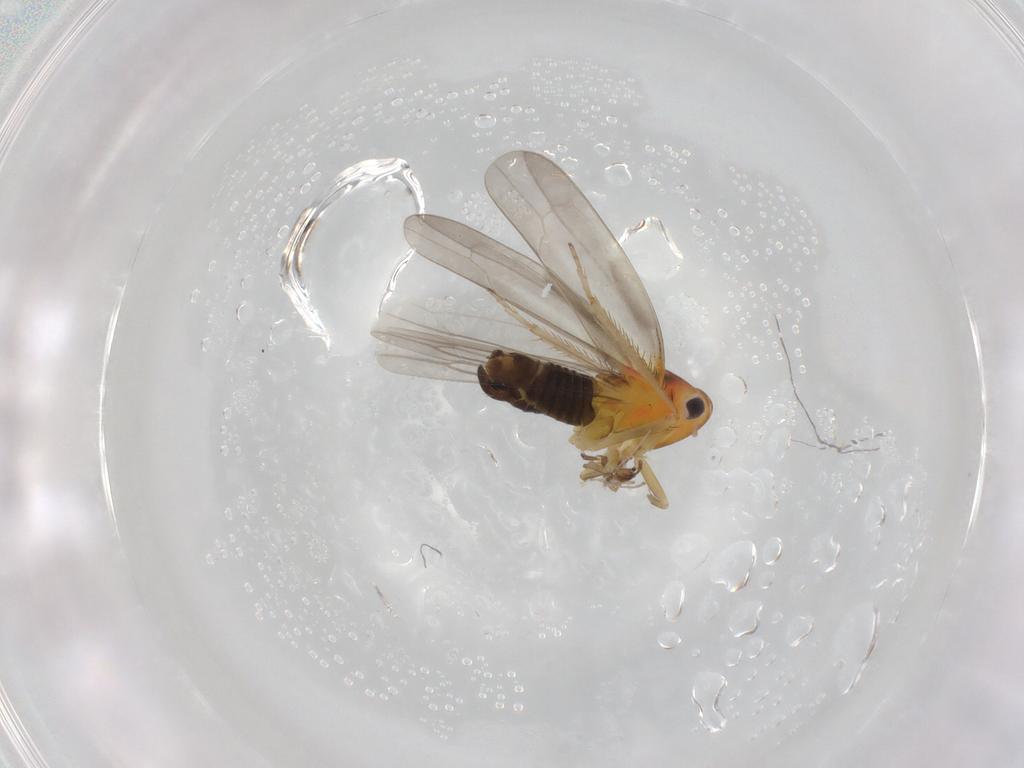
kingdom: Animalia
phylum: Arthropoda
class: Insecta
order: Hemiptera
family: Cicadellidae
